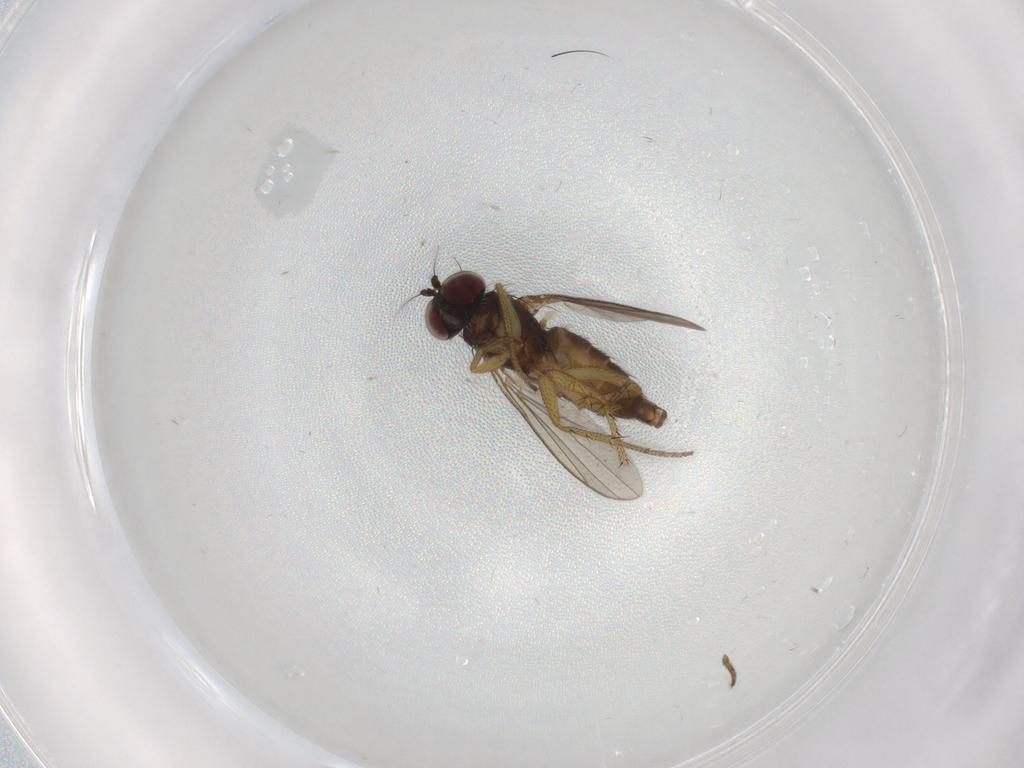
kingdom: Animalia
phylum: Arthropoda
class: Insecta
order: Diptera
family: Dolichopodidae
